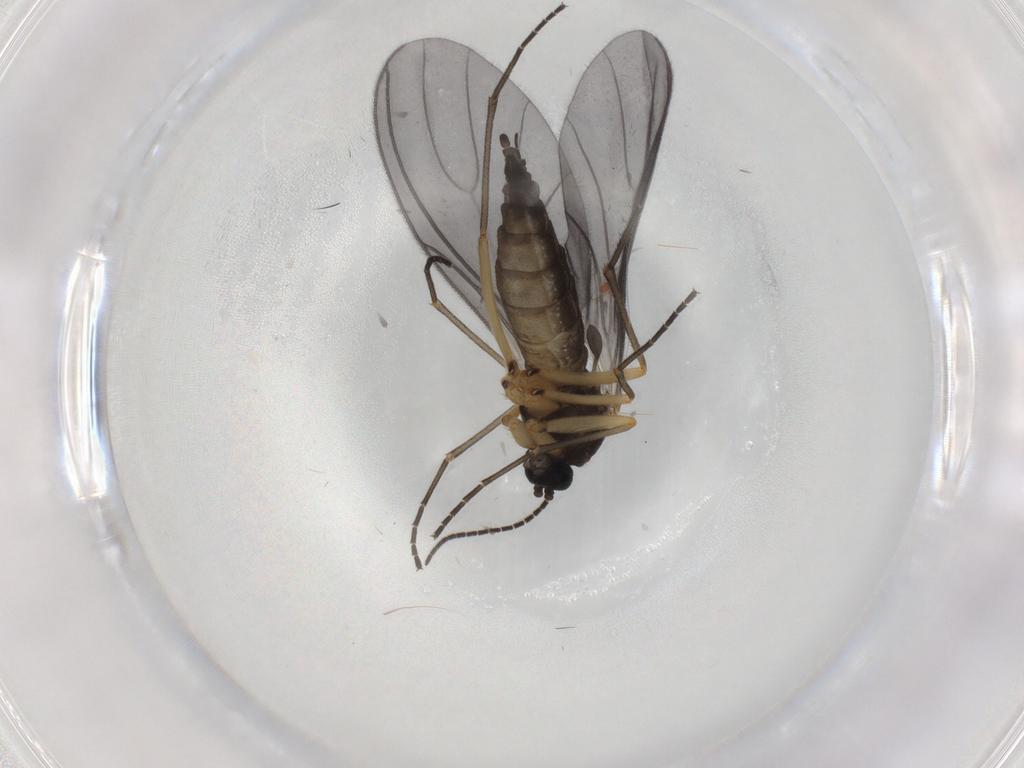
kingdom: Animalia
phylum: Arthropoda
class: Insecta
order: Diptera
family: Sciaridae
